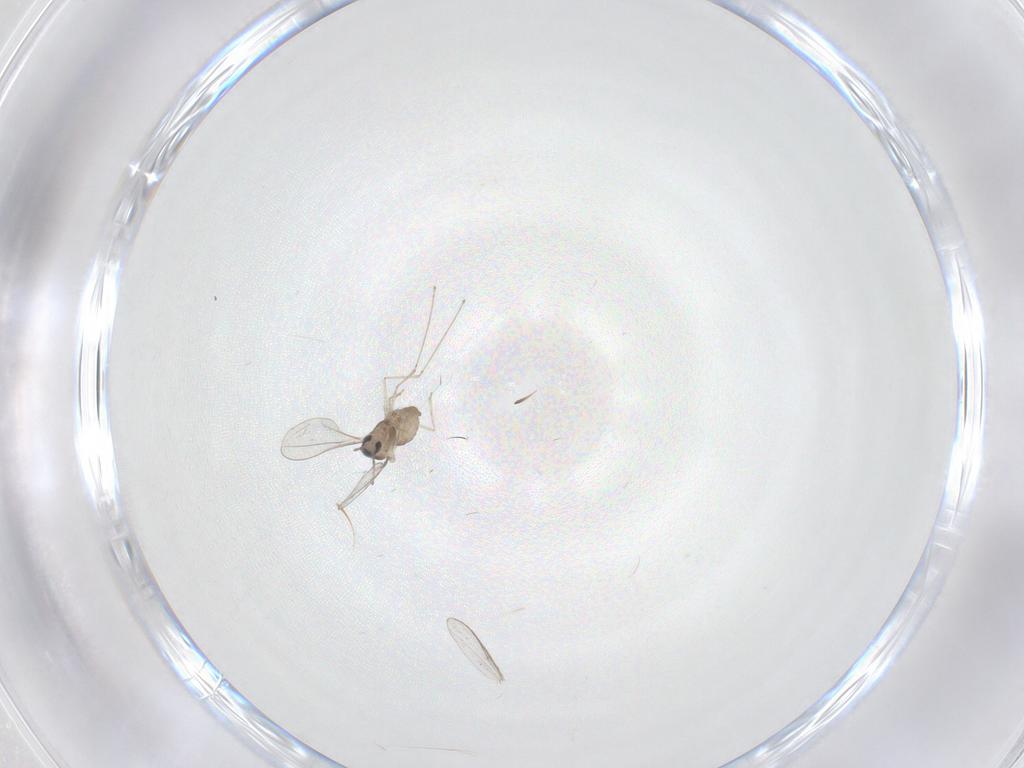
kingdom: Animalia
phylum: Arthropoda
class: Insecta
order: Diptera
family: Cecidomyiidae
